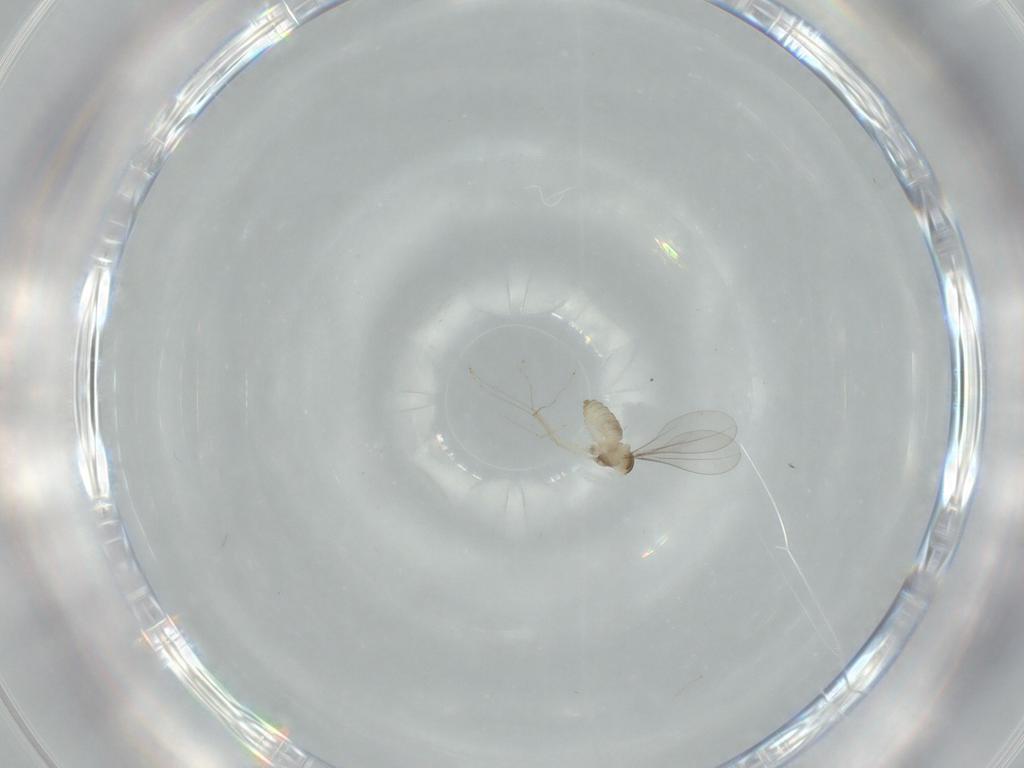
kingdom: Animalia
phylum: Arthropoda
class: Insecta
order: Diptera
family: Cecidomyiidae
